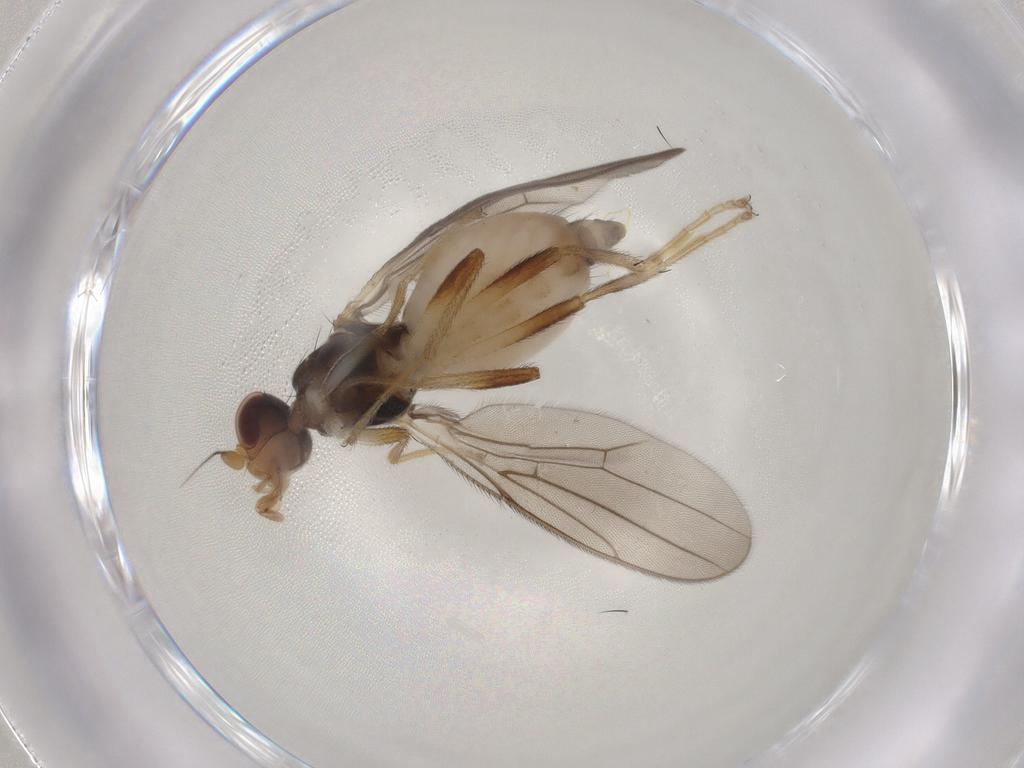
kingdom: Animalia
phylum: Arthropoda
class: Insecta
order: Diptera
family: Chloropidae
